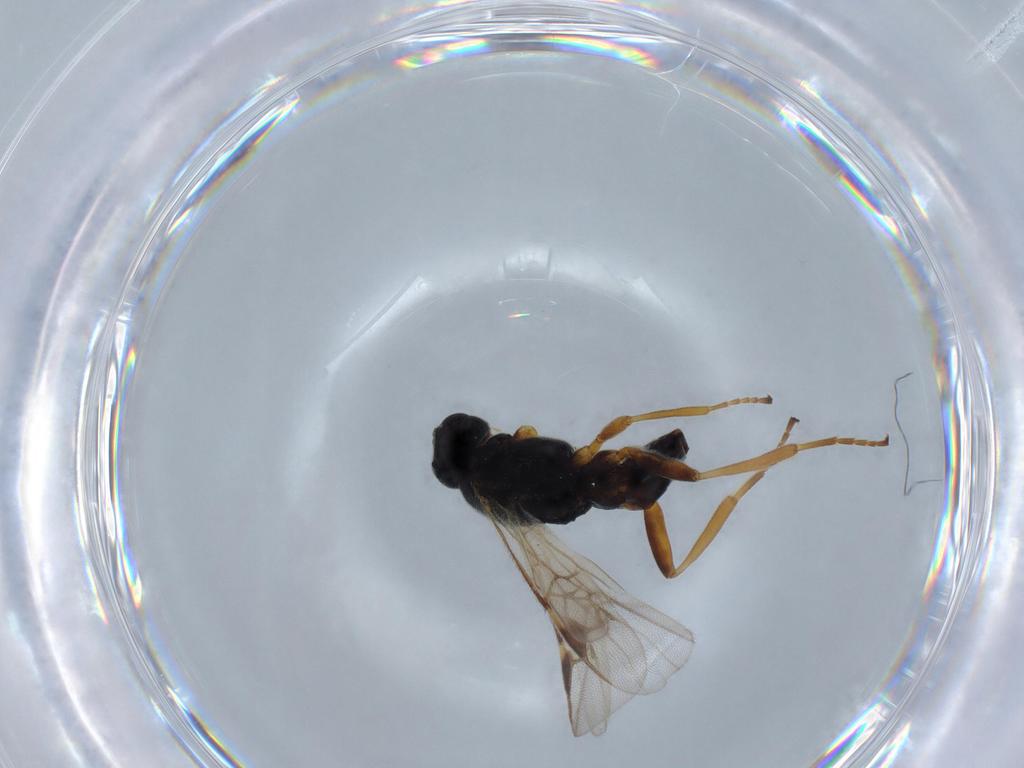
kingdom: Animalia
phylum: Arthropoda
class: Insecta
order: Hymenoptera
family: Braconidae
